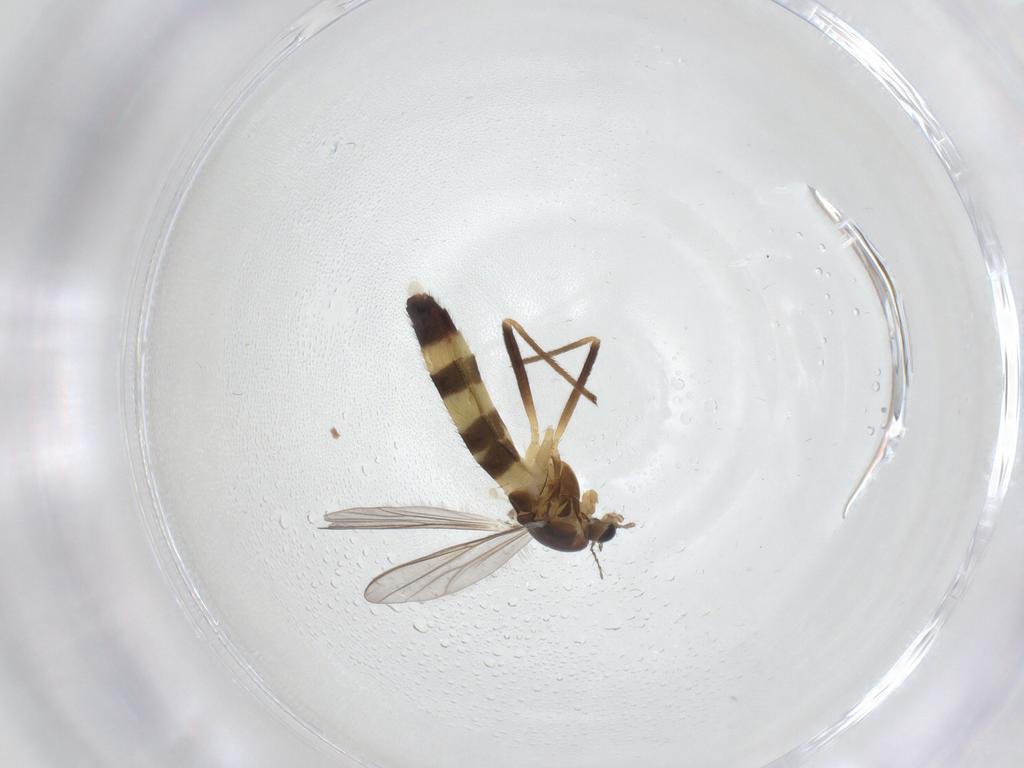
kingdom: Animalia
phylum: Arthropoda
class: Insecta
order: Diptera
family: Chironomidae
